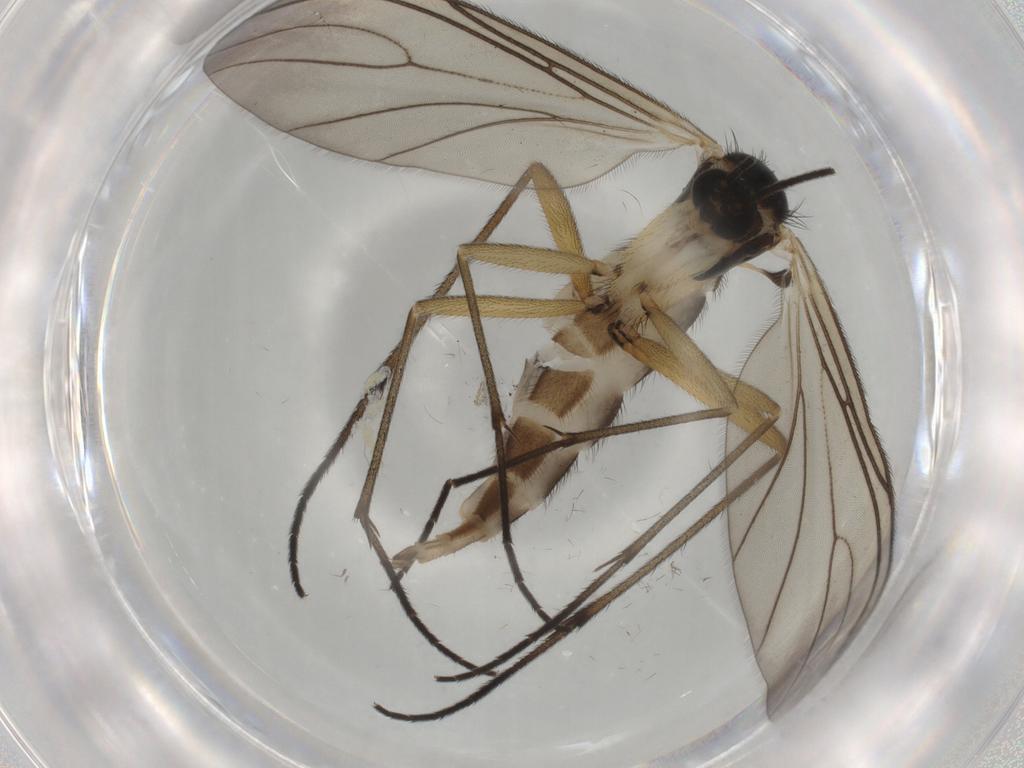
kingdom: Animalia
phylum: Arthropoda
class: Insecta
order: Diptera
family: Sciaridae
